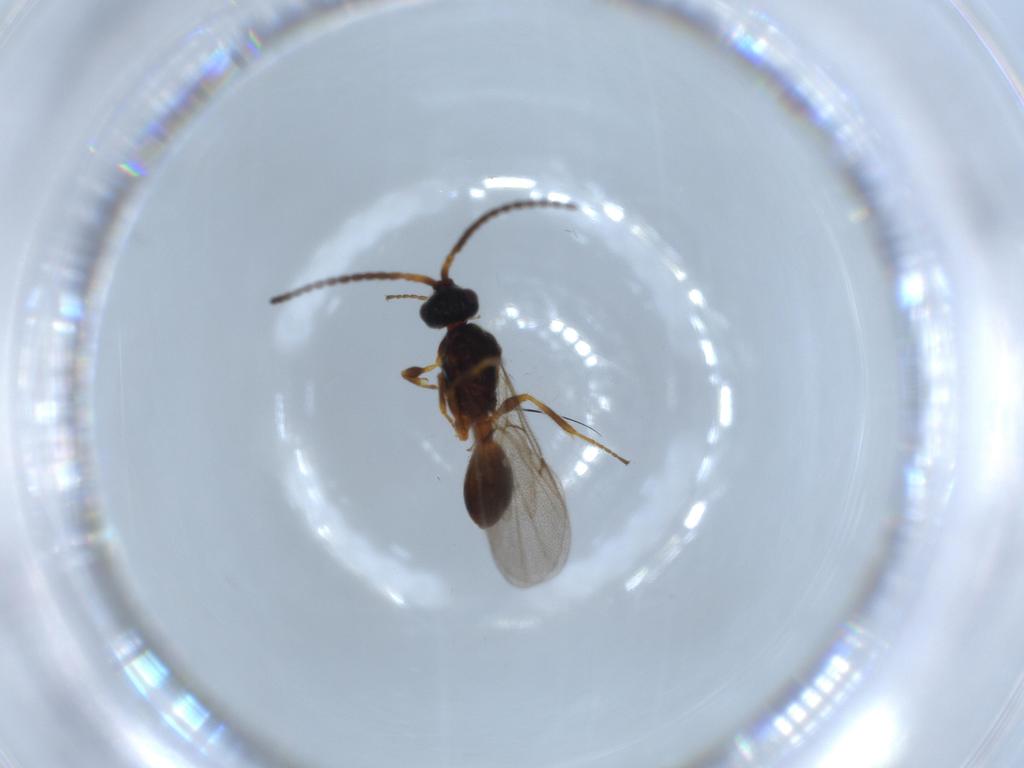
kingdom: Animalia
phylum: Arthropoda
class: Insecta
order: Hymenoptera
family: Diapriidae
